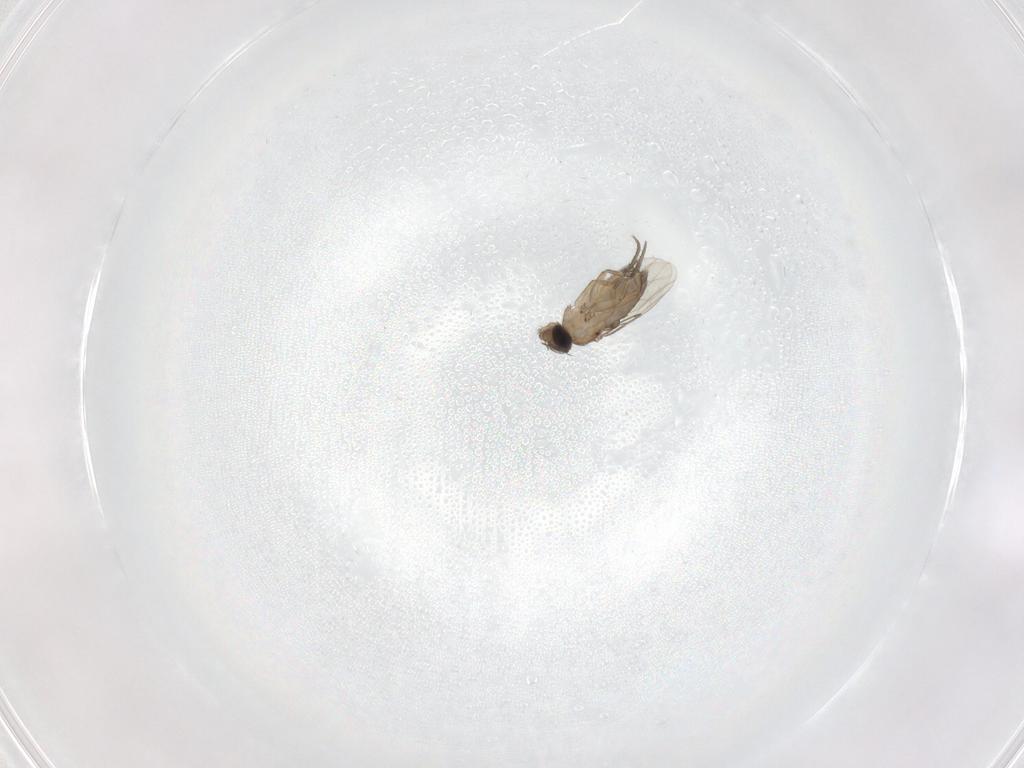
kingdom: Animalia
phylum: Arthropoda
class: Insecta
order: Diptera
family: Phoridae
